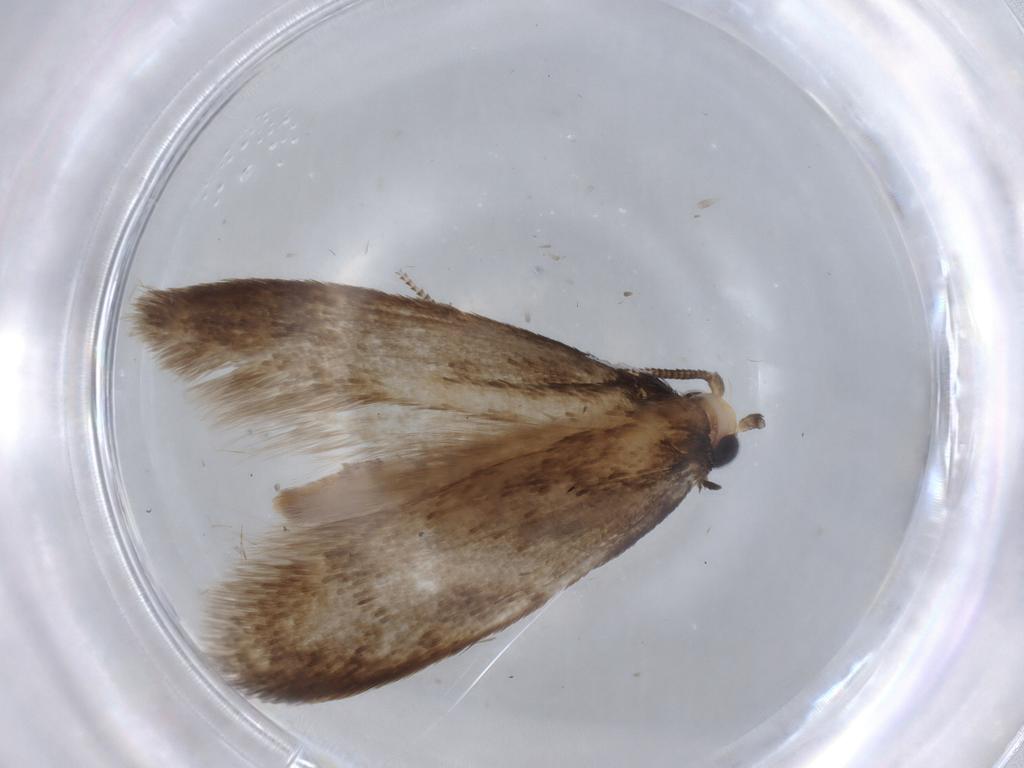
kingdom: Animalia
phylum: Arthropoda
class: Insecta
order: Lepidoptera
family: Tineidae
